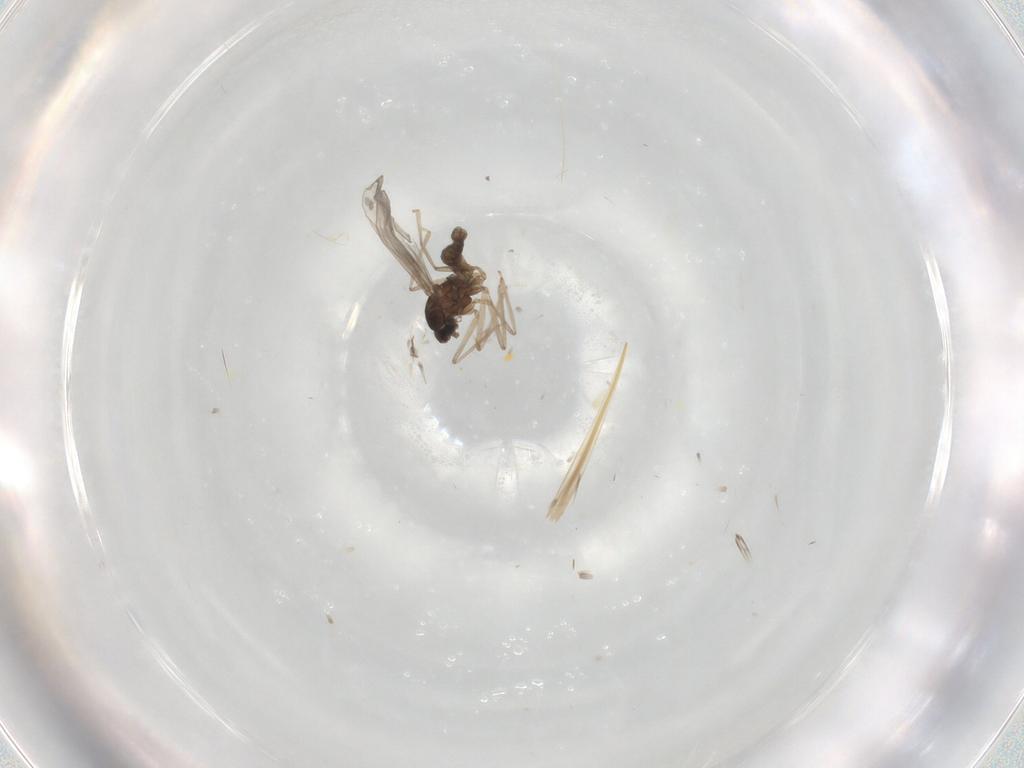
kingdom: Animalia
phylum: Arthropoda
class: Insecta
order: Diptera
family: Cecidomyiidae
